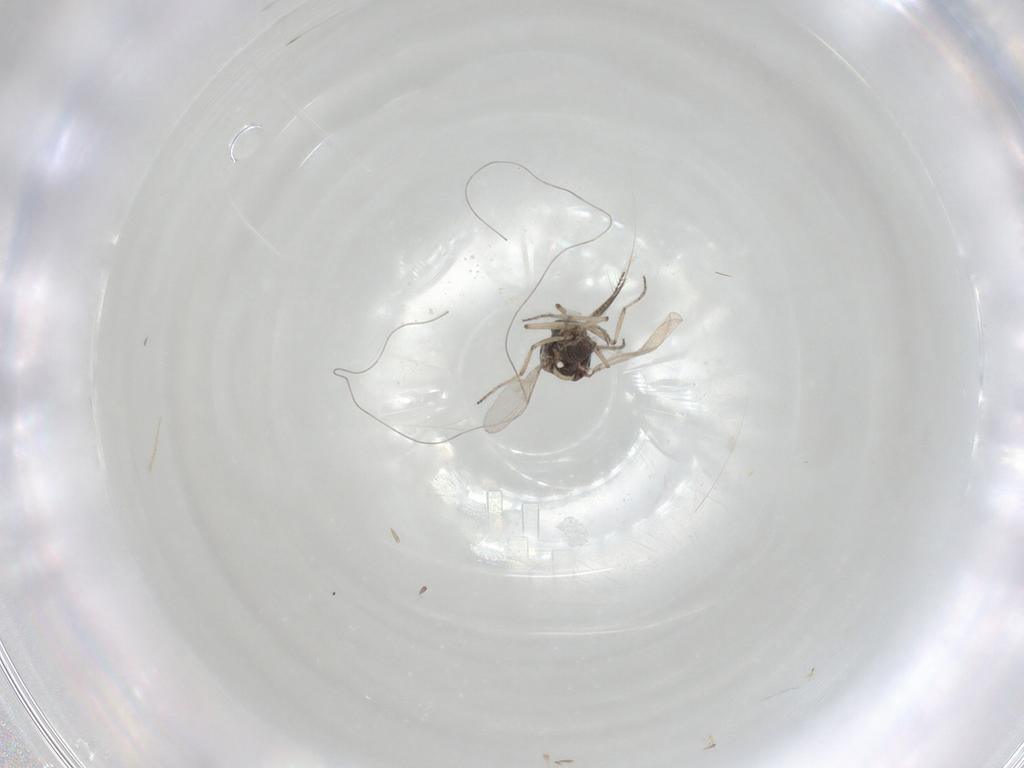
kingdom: Animalia
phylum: Arthropoda
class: Insecta
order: Diptera
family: Ceratopogonidae
